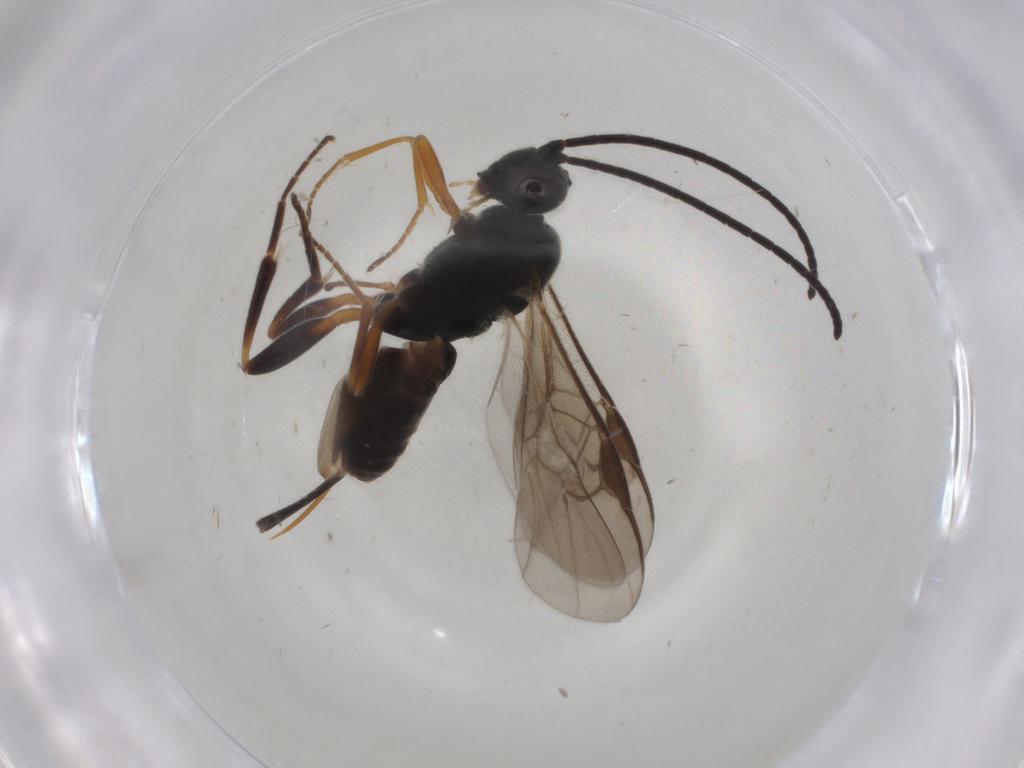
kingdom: Animalia
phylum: Arthropoda
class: Insecta
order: Hymenoptera
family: Braconidae
